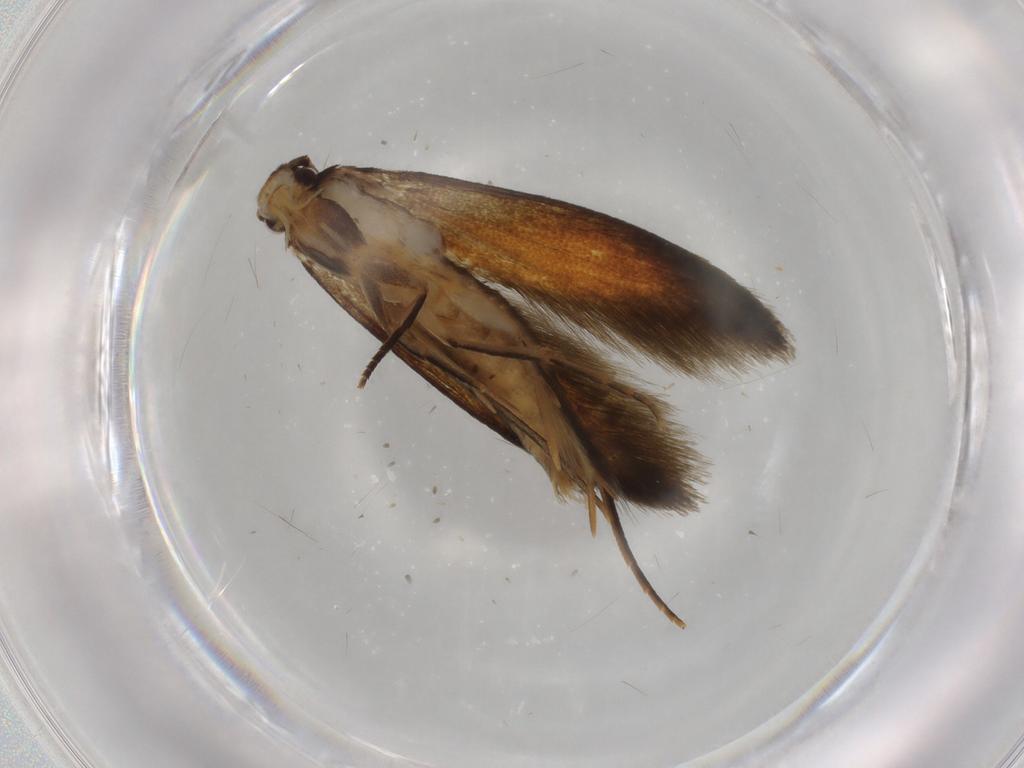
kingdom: Animalia
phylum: Arthropoda
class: Insecta
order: Lepidoptera
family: Tineidae
